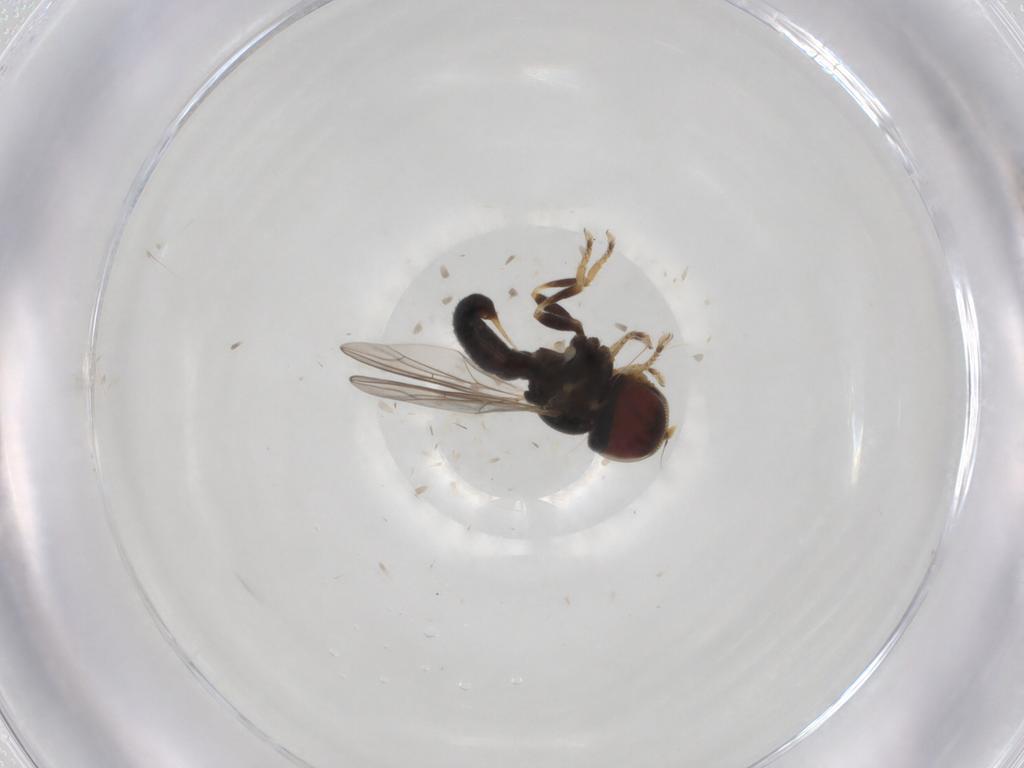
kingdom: Animalia
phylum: Arthropoda
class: Insecta
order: Diptera
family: Pipunculidae
